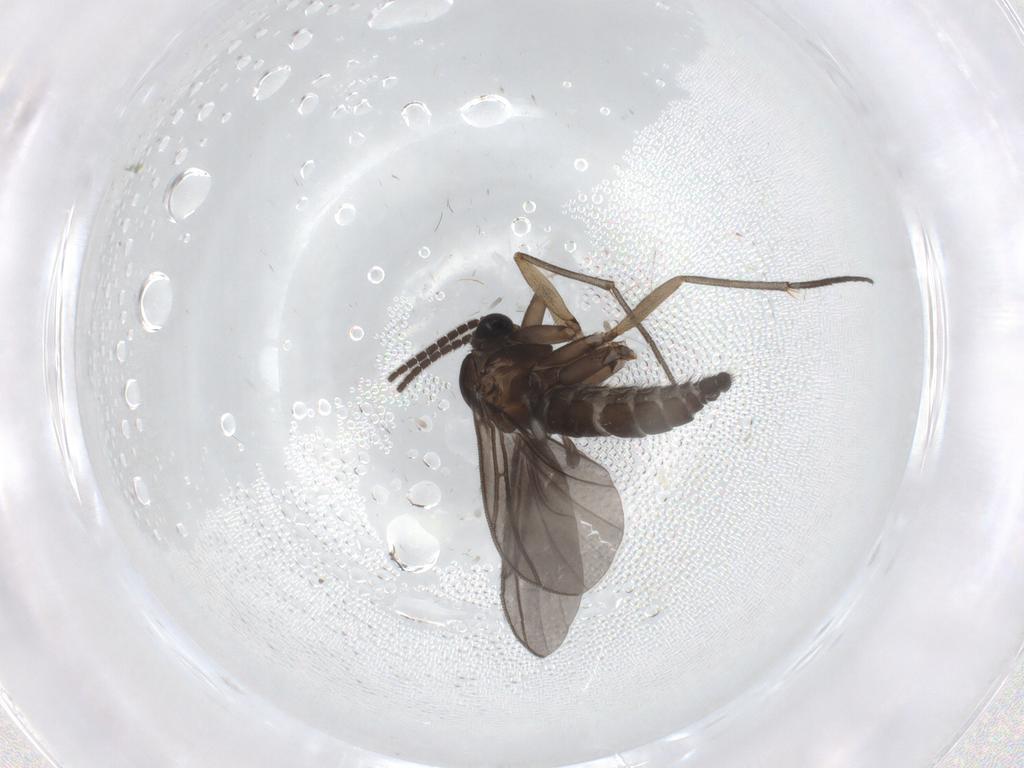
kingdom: Animalia
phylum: Arthropoda
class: Insecta
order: Diptera
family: Sciaridae
